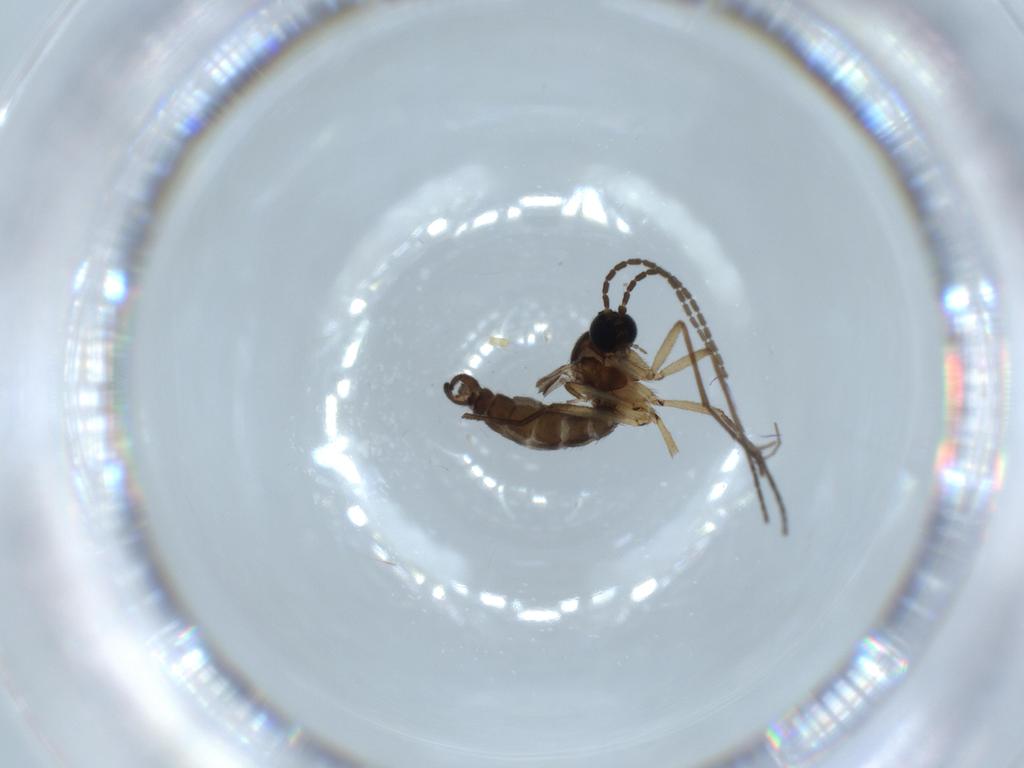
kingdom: Animalia
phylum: Arthropoda
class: Insecta
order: Diptera
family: Ceratopogonidae
